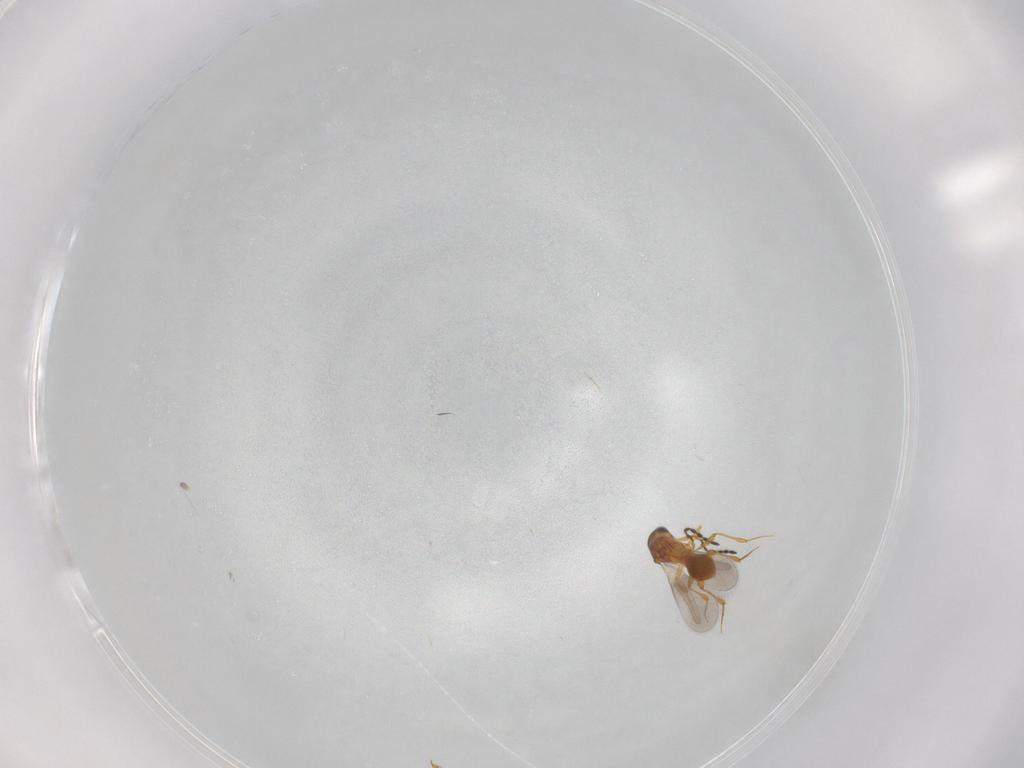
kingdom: Animalia
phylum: Arthropoda
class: Insecta
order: Hymenoptera
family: Platygastridae
